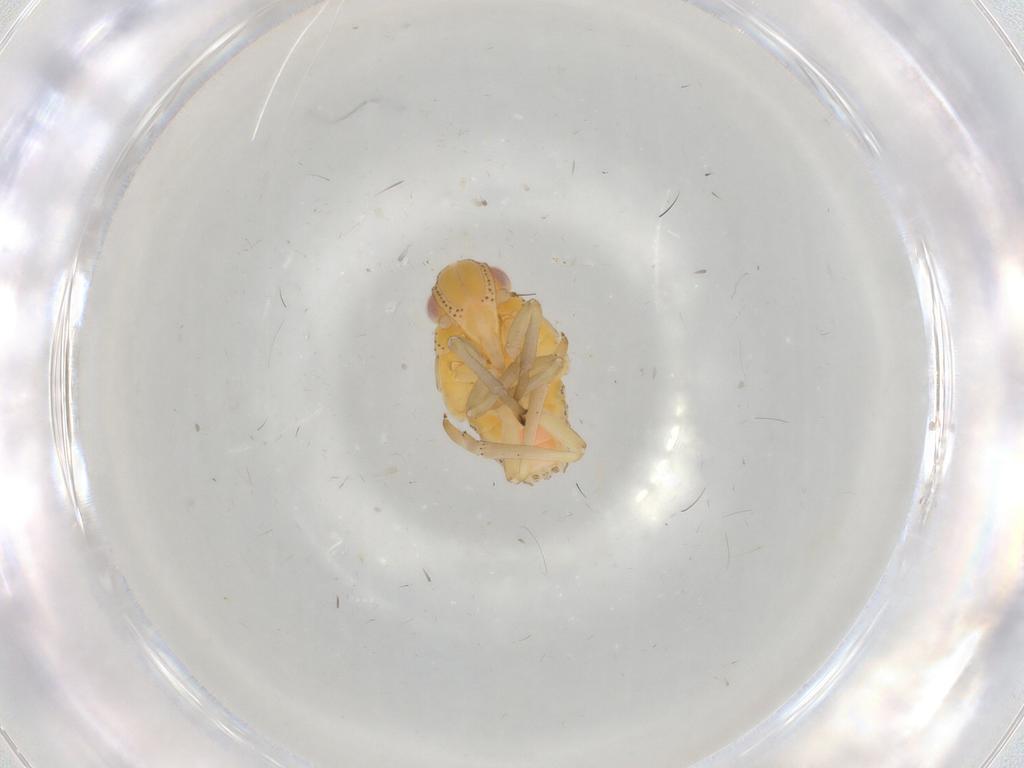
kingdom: Animalia
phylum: Arthropoda
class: Insecta
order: Hemiptera
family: Tropiduchidae
